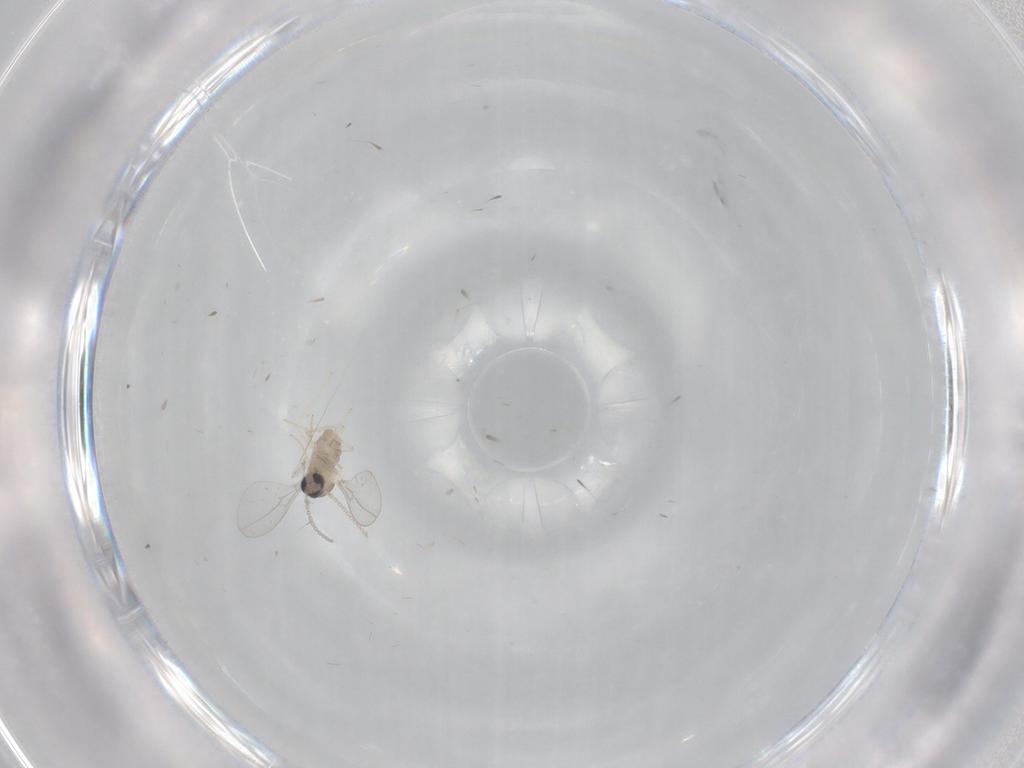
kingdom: Animalia
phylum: Arthropoda
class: Insecta
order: Diptera
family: Cecidomyiidae
